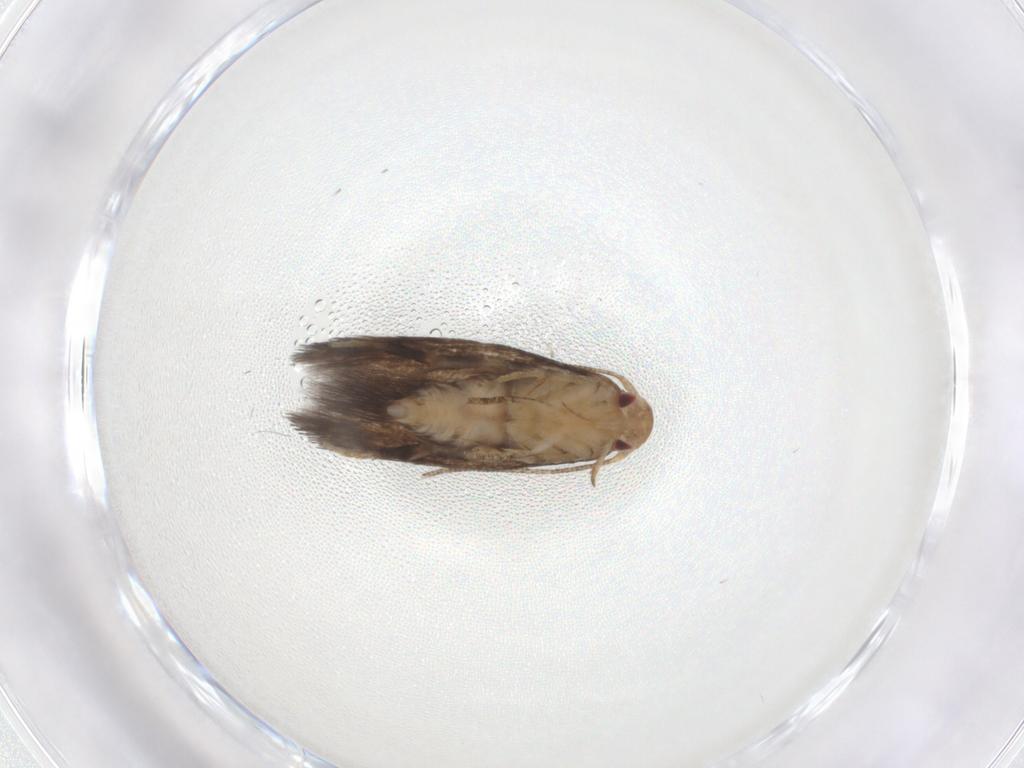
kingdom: Animalia
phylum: Arthropoda
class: Insecta
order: Lepidoptera
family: Momphidae
